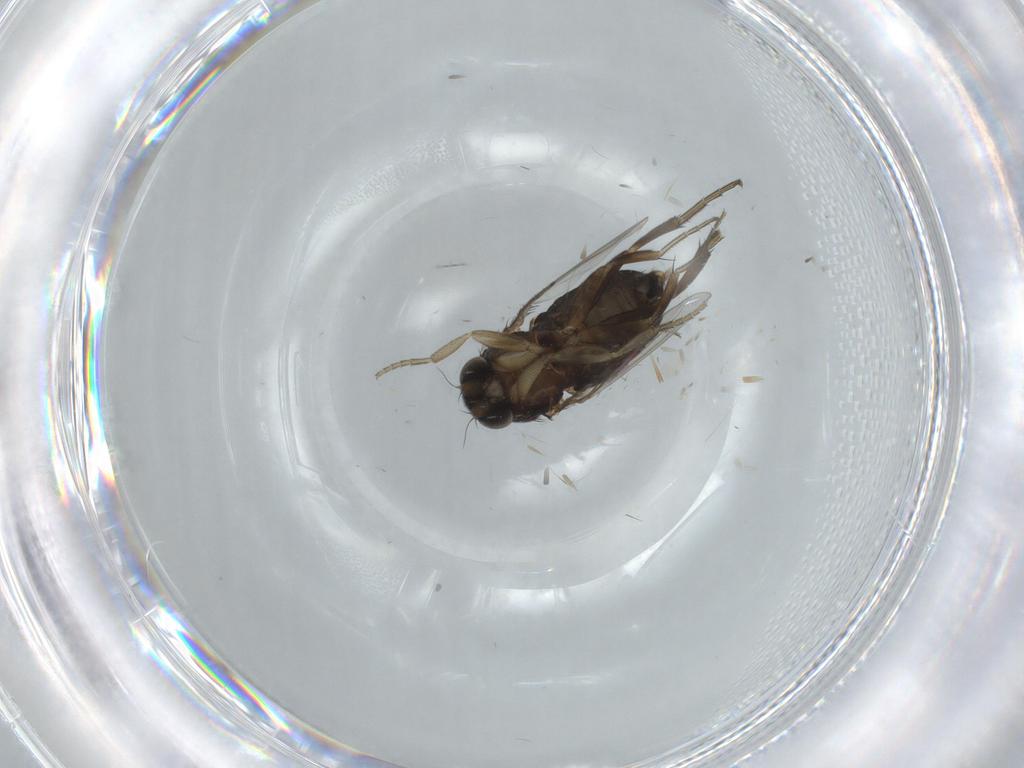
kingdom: Animalia
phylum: Arthropoda
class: Insecta
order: Diptera
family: Phoridae
